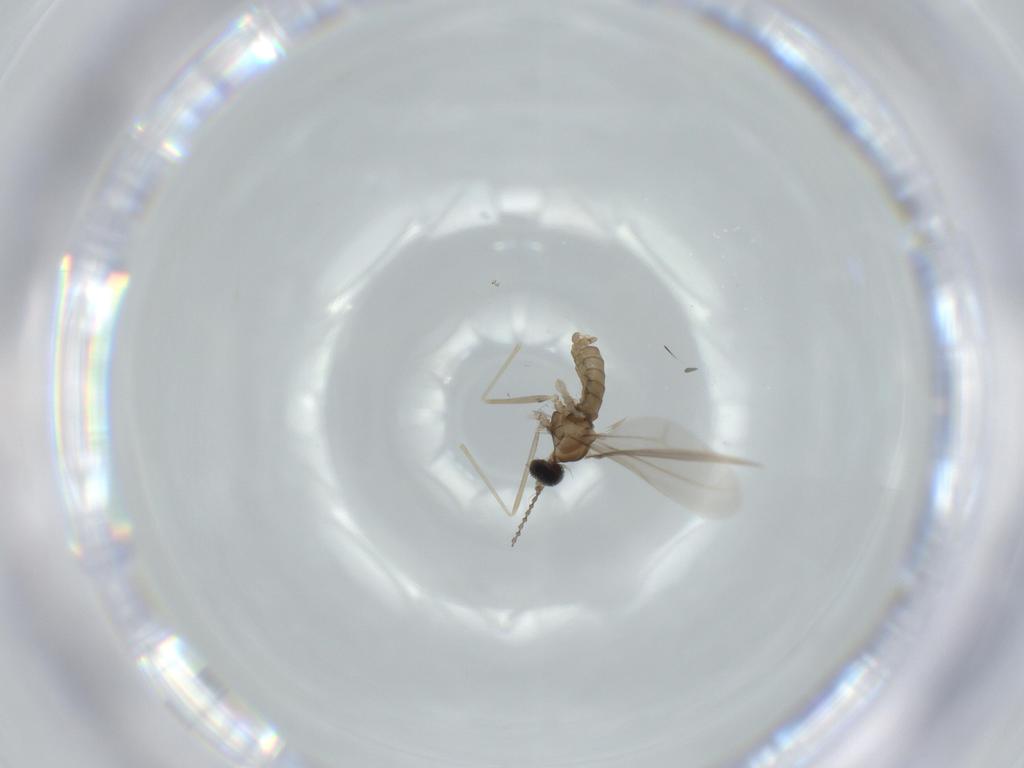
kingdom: Animalia
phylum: Arthropoda
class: Insecta
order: Diptera
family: Cecidomyiidae
